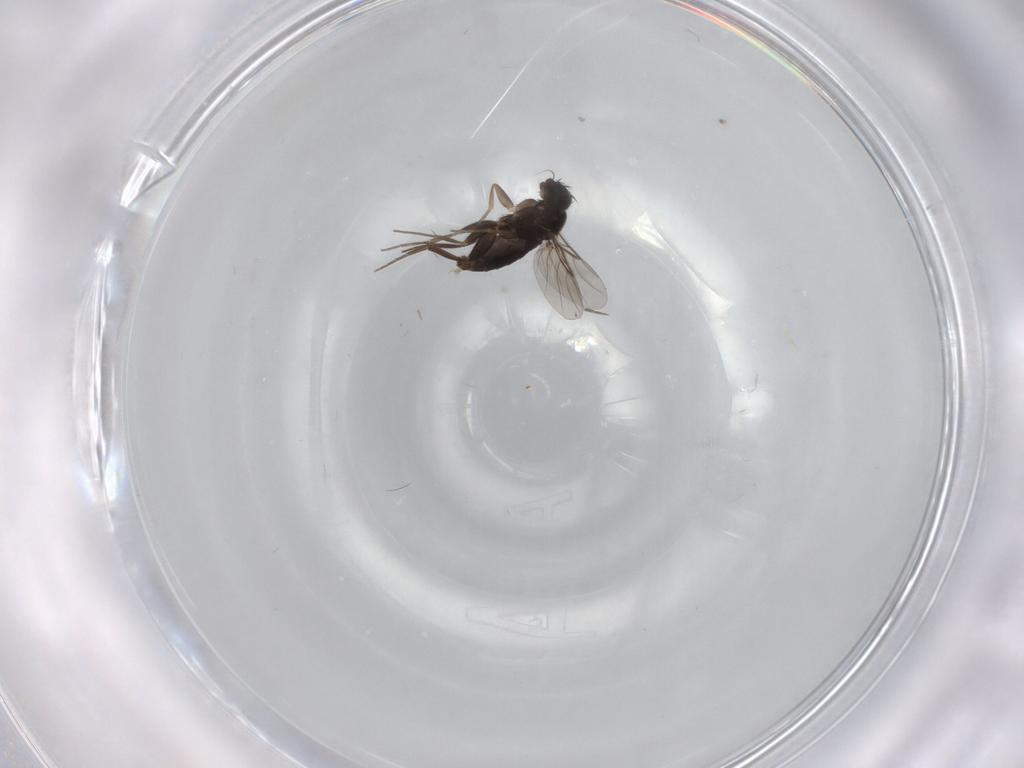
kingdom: Animalia
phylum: Arthropoda
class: Insecta
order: Diptera
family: Phoridae
